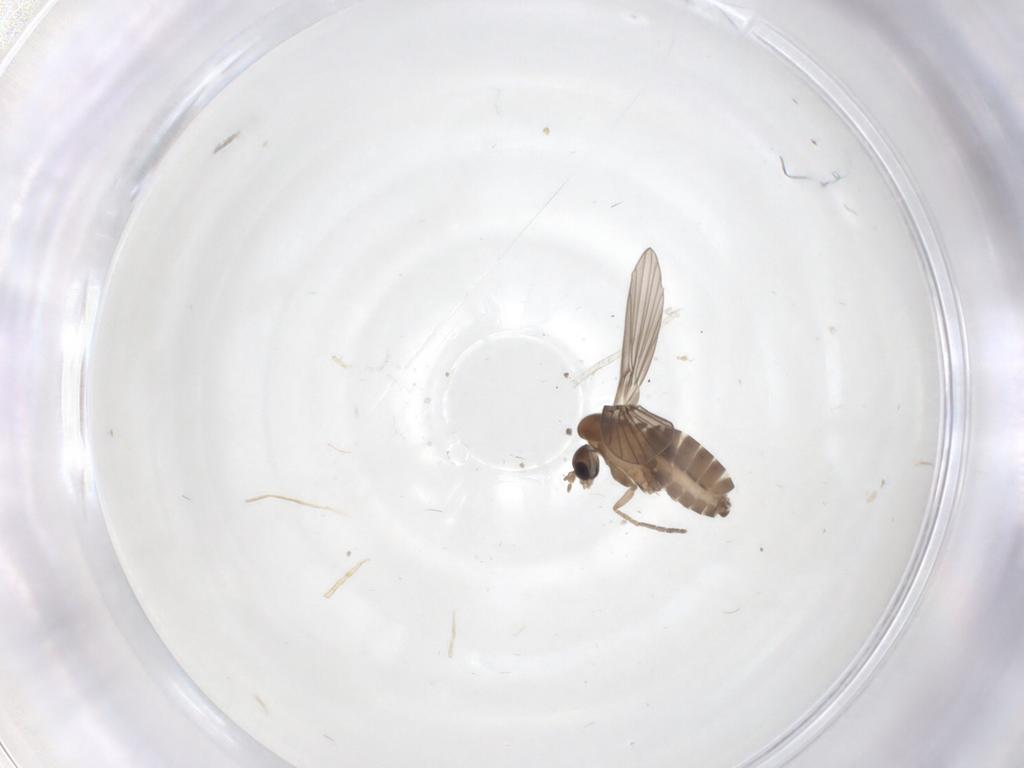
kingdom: Animalia
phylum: Arthropoda
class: Insecta
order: Diptera
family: Psychodidae
